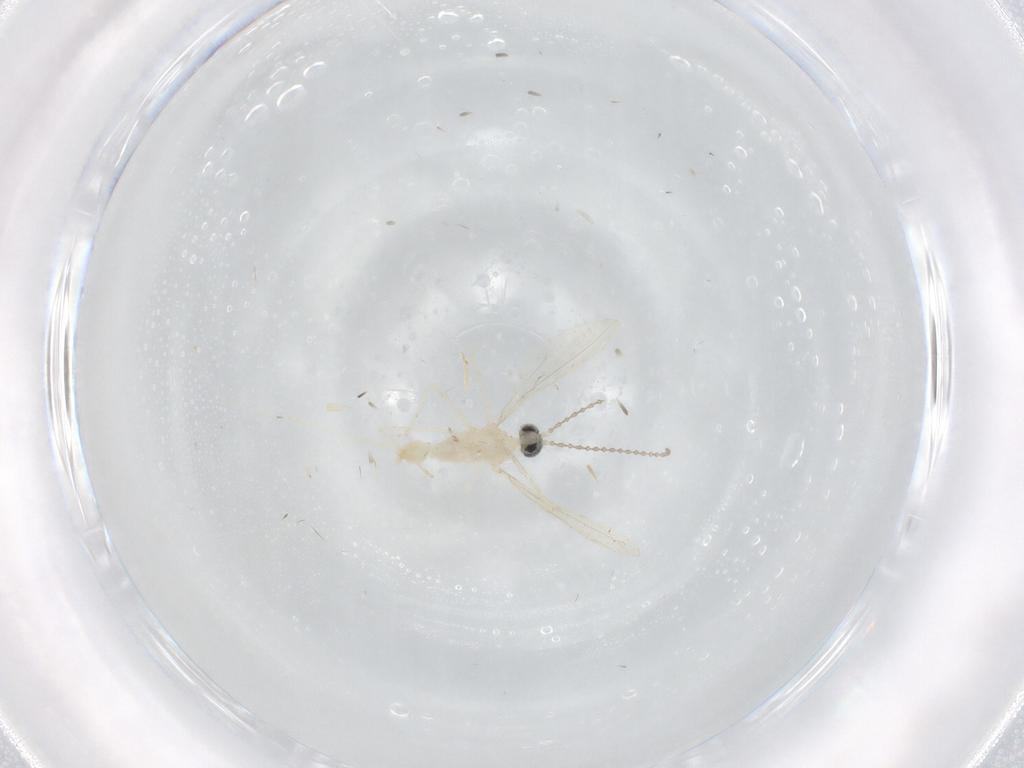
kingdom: Animalia
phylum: Arthropoda
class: Insecta
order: Diptera
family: Cecidomyiidae
